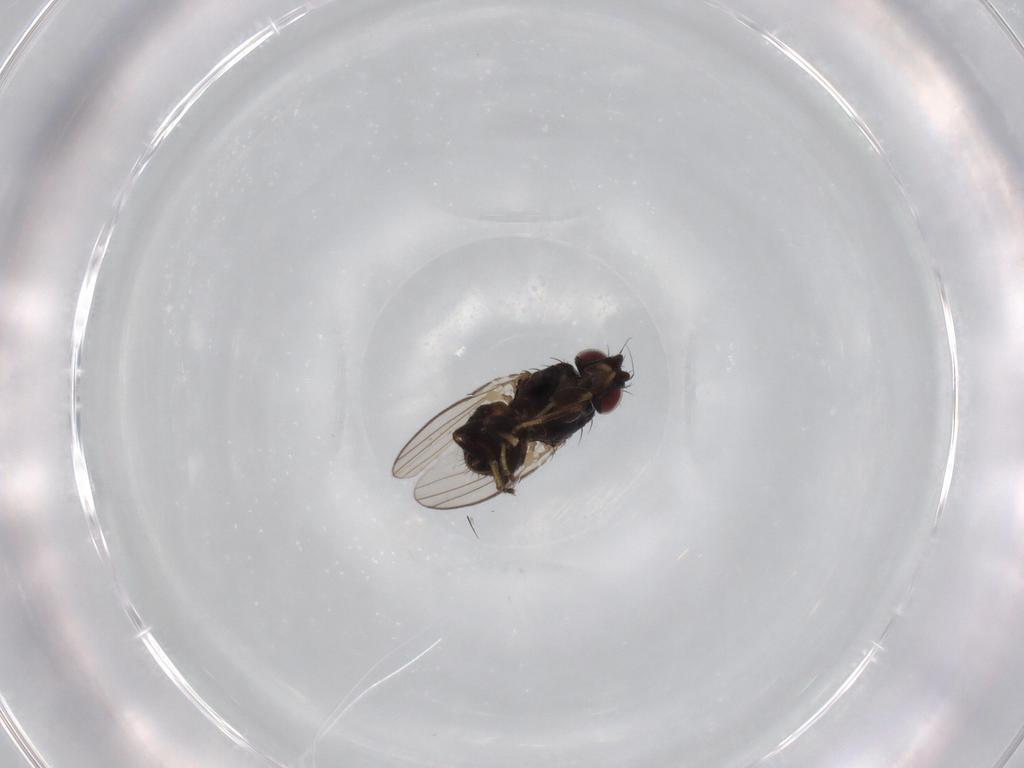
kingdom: Animalia
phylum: Arthropoda
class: Insecta
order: Diptera
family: Milichiidae
